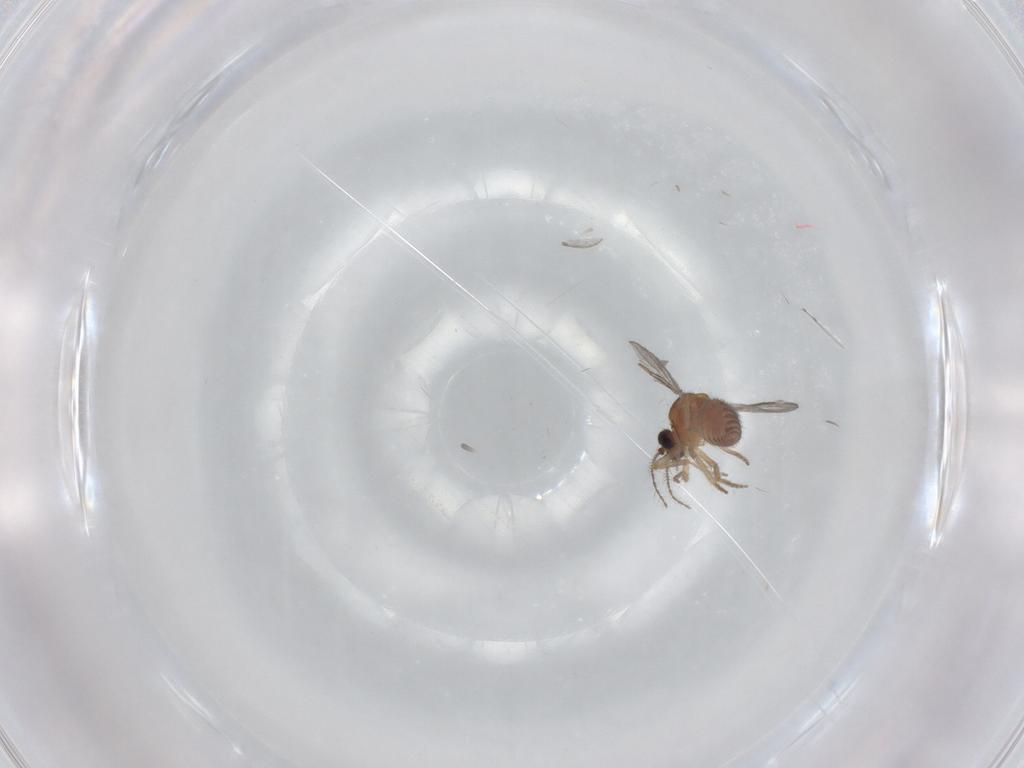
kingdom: Animalia
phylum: Arthropoda
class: Insecta
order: Diptera
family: Ceratopogonidae
